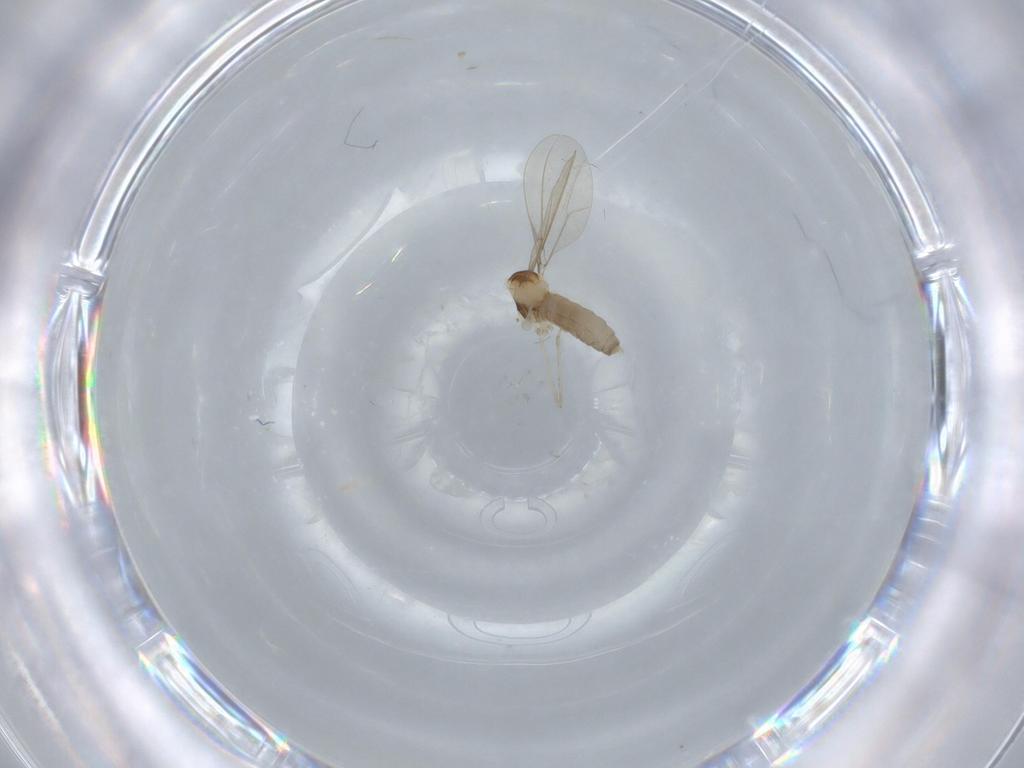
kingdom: Animalia
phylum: Arthropoda
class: Insecta
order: Diptera
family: Cecidomyiidae
